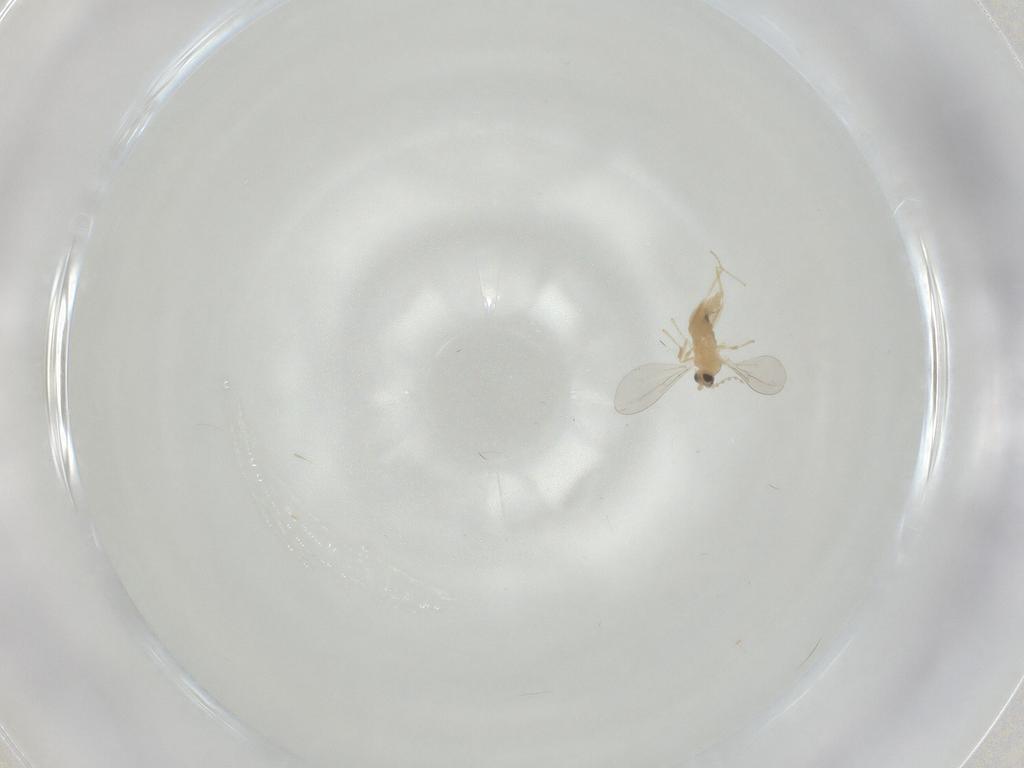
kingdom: Animalia
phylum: Arthropoda
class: Insecta
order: Diptera
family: Cecidomyiidae
